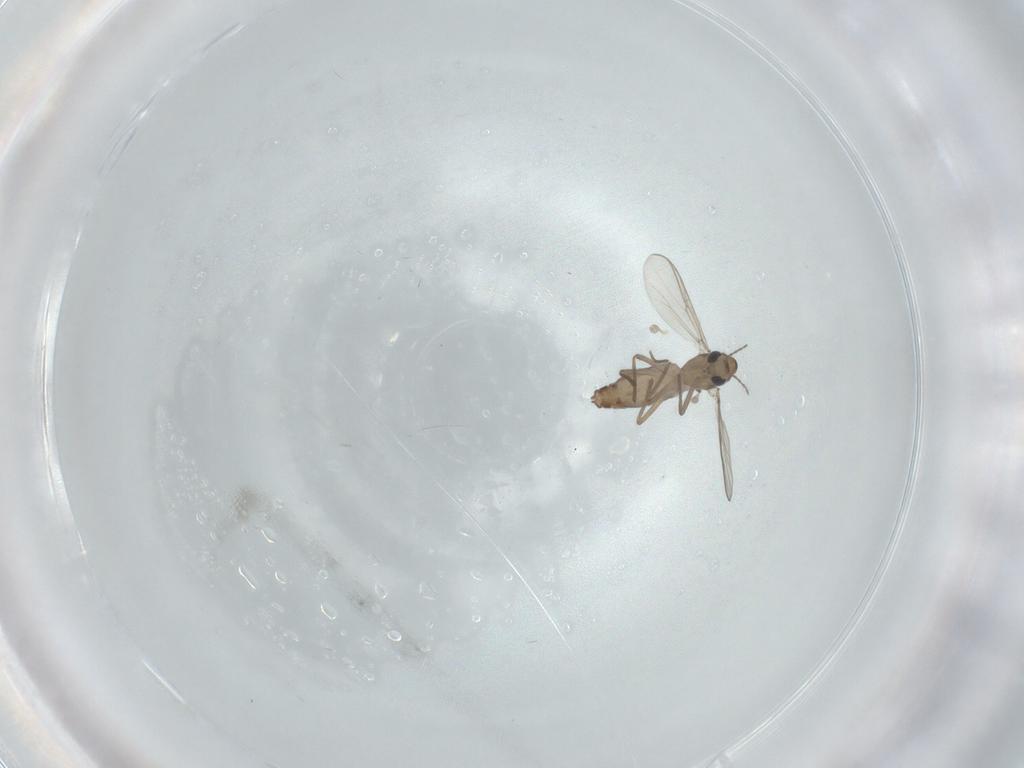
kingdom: Animalia
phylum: Arthropoda
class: Insecta
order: Diptera
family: Chironomidae
